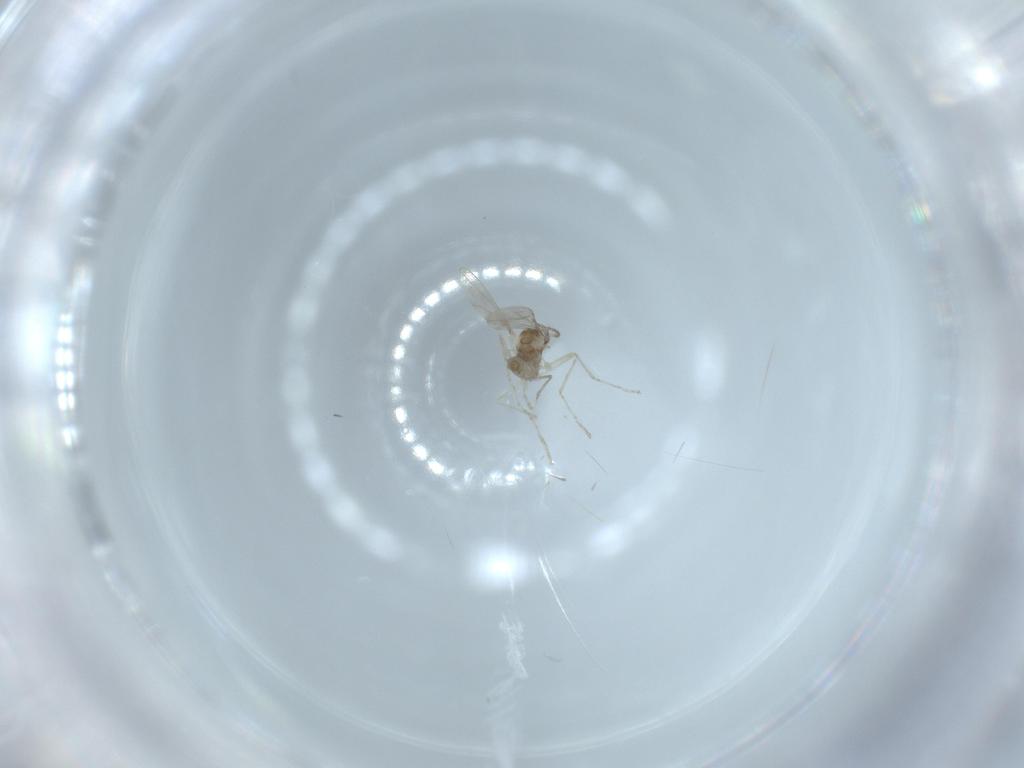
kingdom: Animalia
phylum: Arthropoda
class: Insecta
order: Diptera
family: Cecidomyiidae
